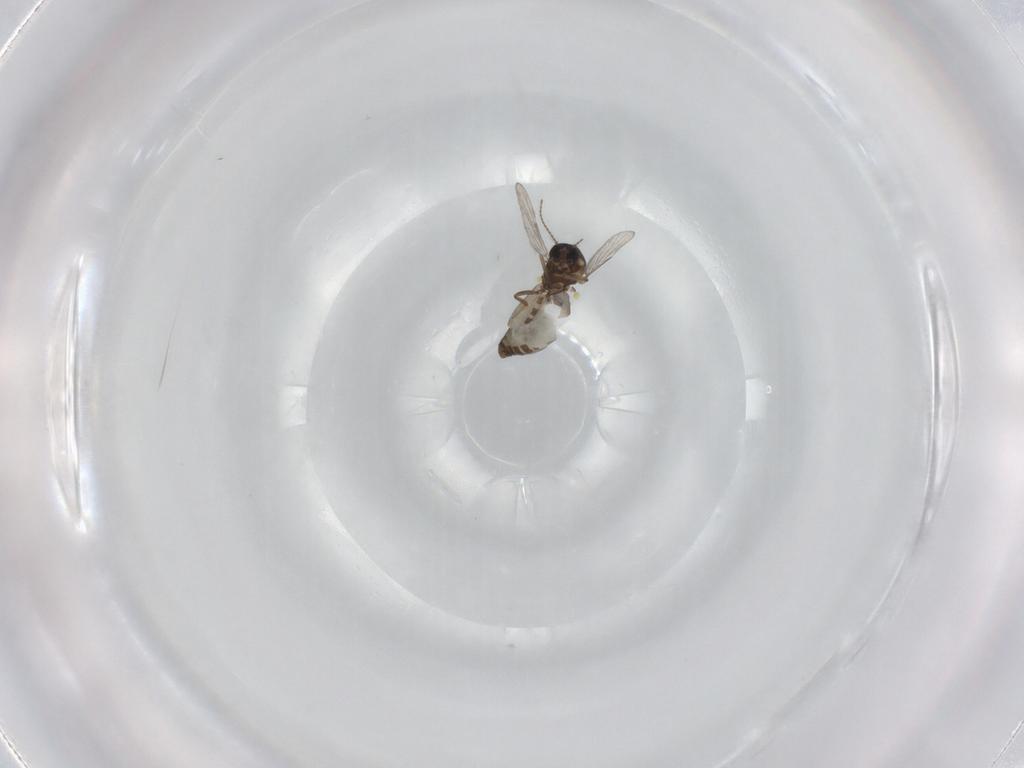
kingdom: Animalia
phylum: Arthropoda
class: Insecta
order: Diptera
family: Ceratopogonidae
